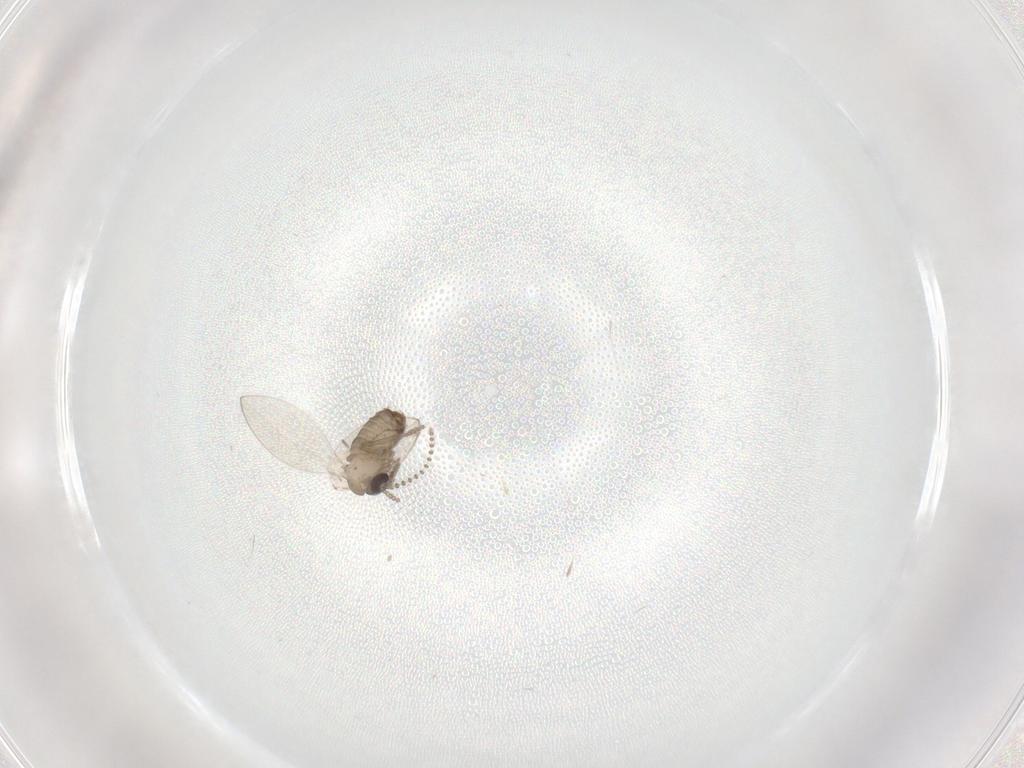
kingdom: Animalia
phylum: Arthropoda
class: Insecta
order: Diptera
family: Psychodidae
